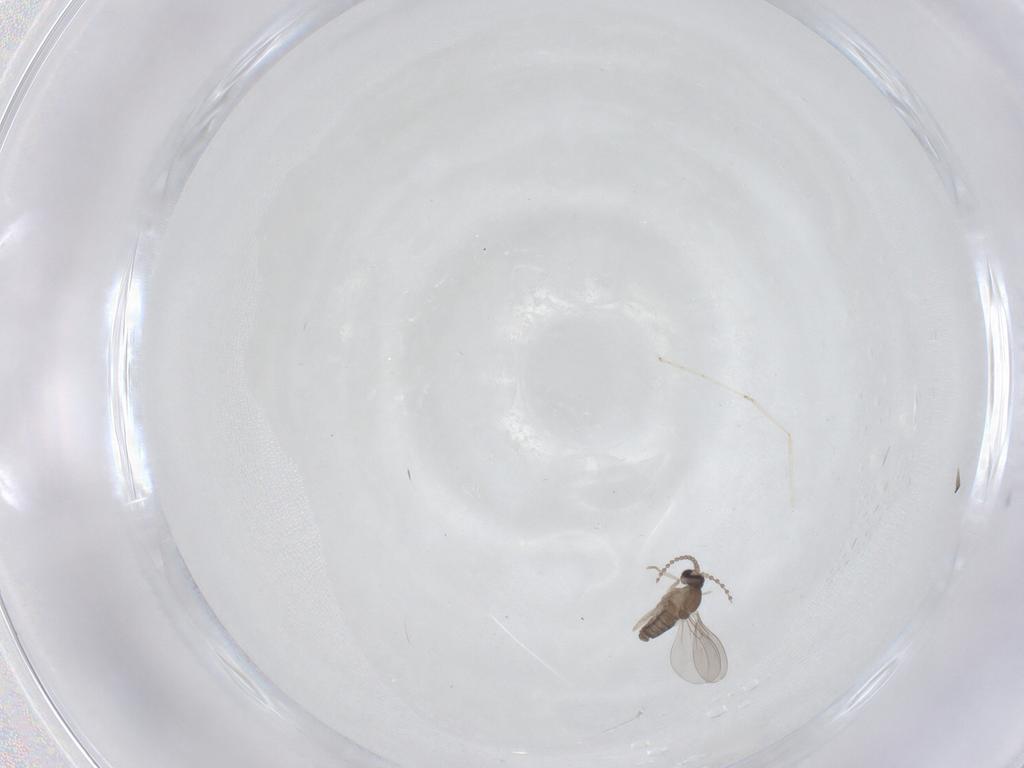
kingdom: Animalia
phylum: Arthropoda
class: Insecta
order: Diptera
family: Cecidomyiidae
